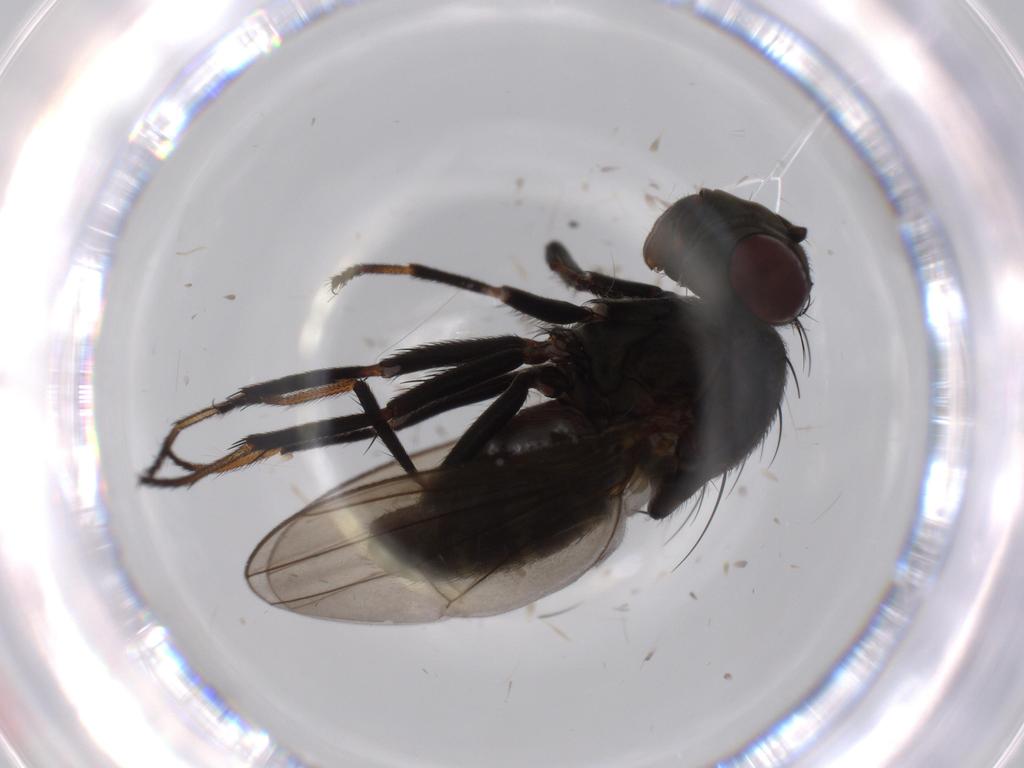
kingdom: Animalia
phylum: Arthropoda
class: Insecta
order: Diptera
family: Ephydridae
